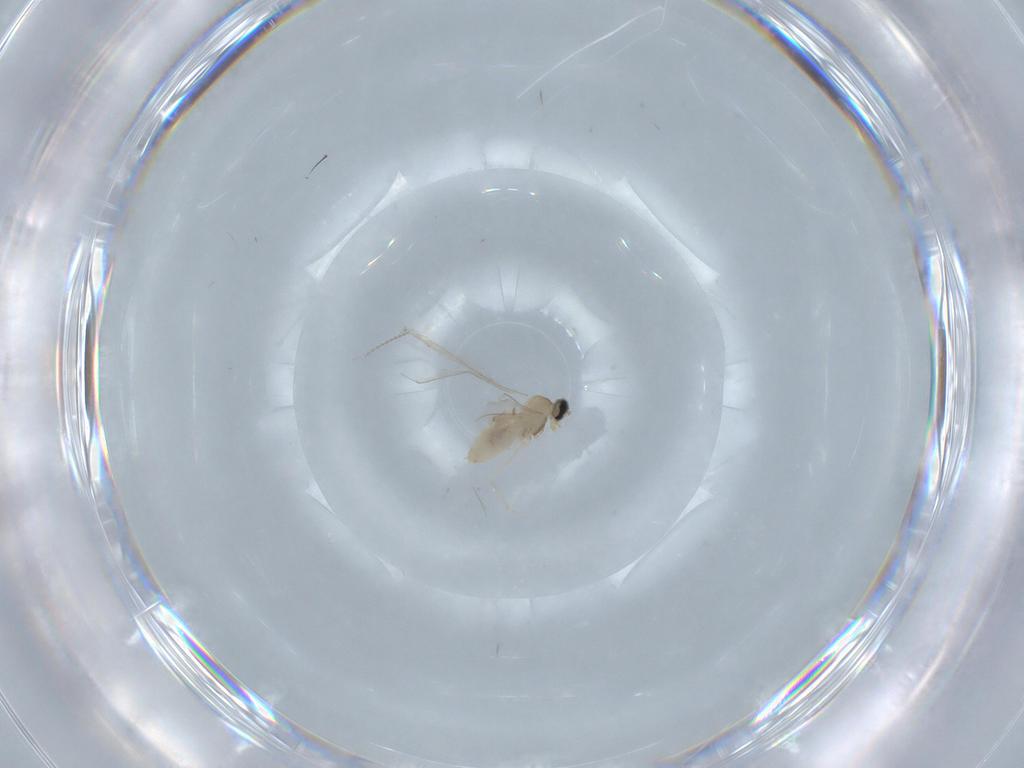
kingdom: Animalia
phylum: Arthropoda
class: Insecta
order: Diptera
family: Cecidomyiidae
